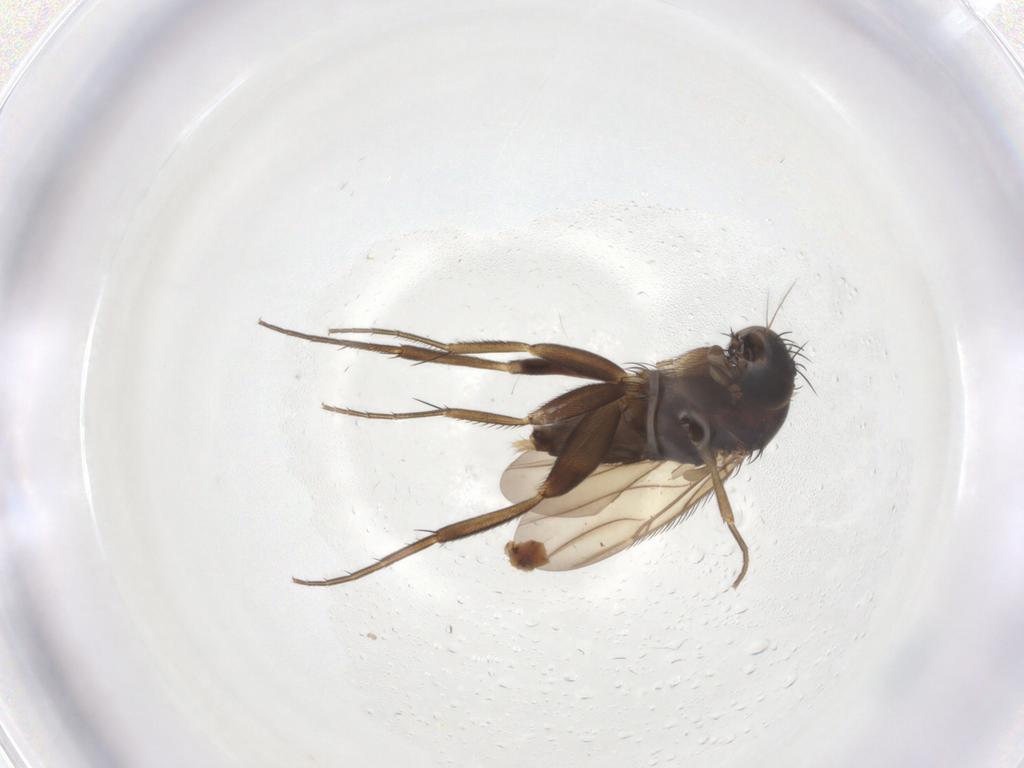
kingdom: Animalia
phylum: Arthropoda
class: Insecta
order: Diptera
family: Phoridae
